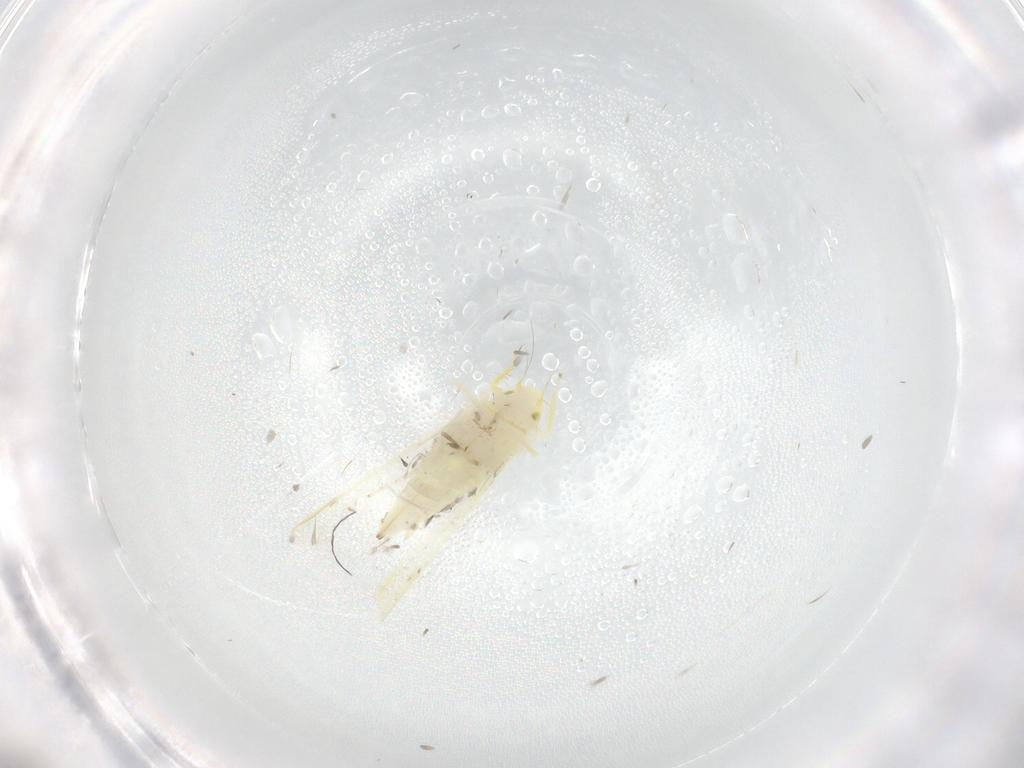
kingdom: Animalia
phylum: Arthropoda
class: Insecta
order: Hemiptera
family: Cicadellidae
